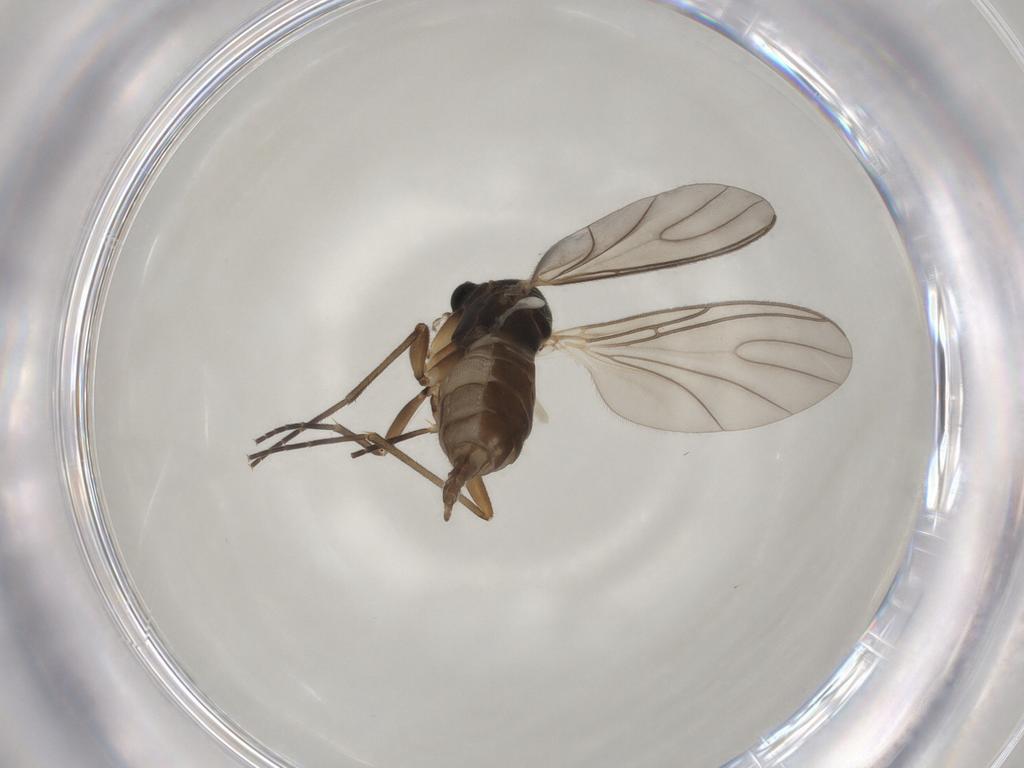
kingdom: Animalia
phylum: Arthropoda
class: Insecta
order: Diptera
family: Sciaridae
